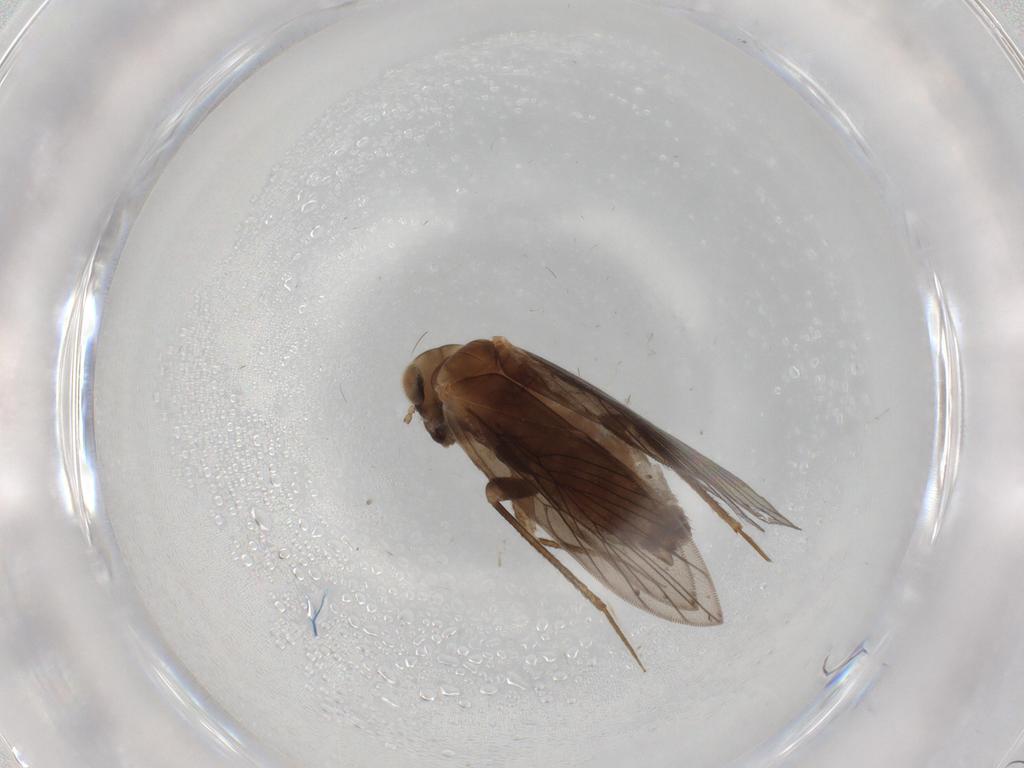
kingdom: Animalia
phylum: Arthropoda
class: Insecta
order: Psocodea
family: Lepidopsocidae
